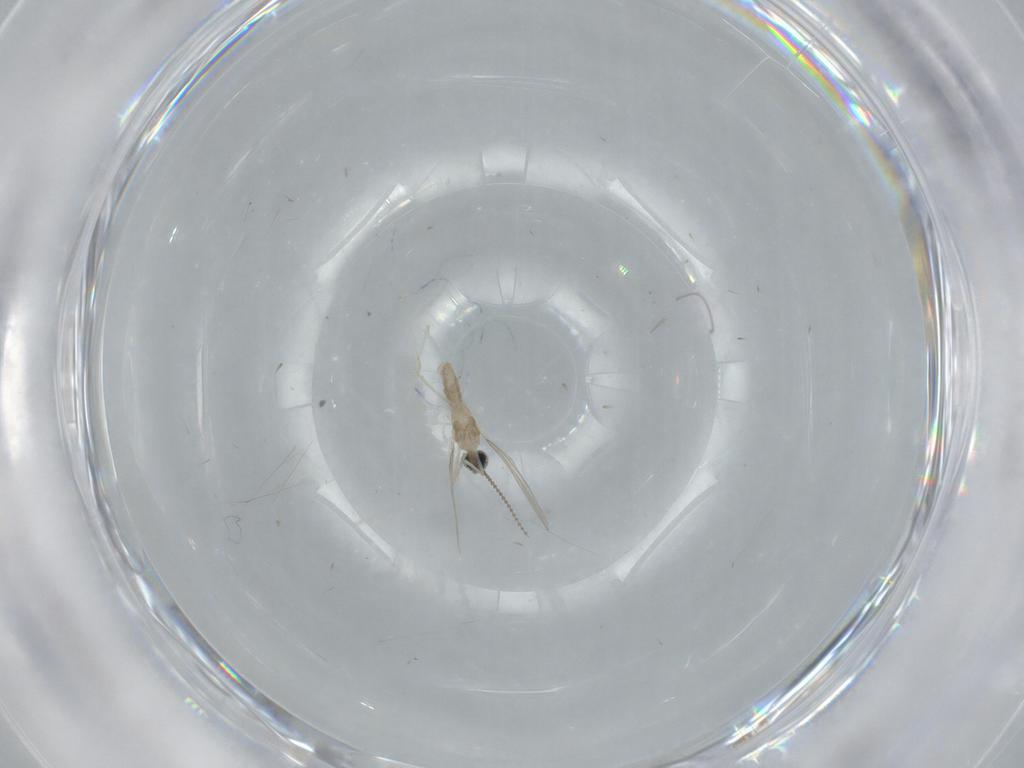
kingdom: Animalia
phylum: Arthropoda
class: Insecta
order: Diptera
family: Cecidomyiidae
